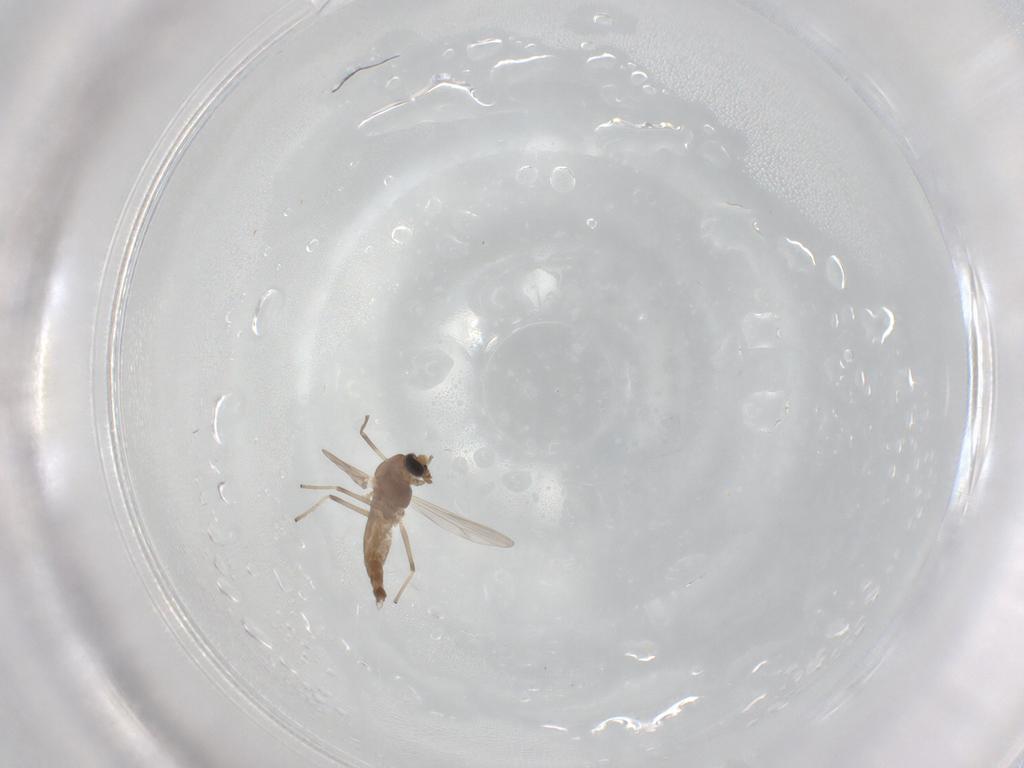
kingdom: Animalia
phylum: Arthropoda
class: Insecta
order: Diptera
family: Chironomidae
